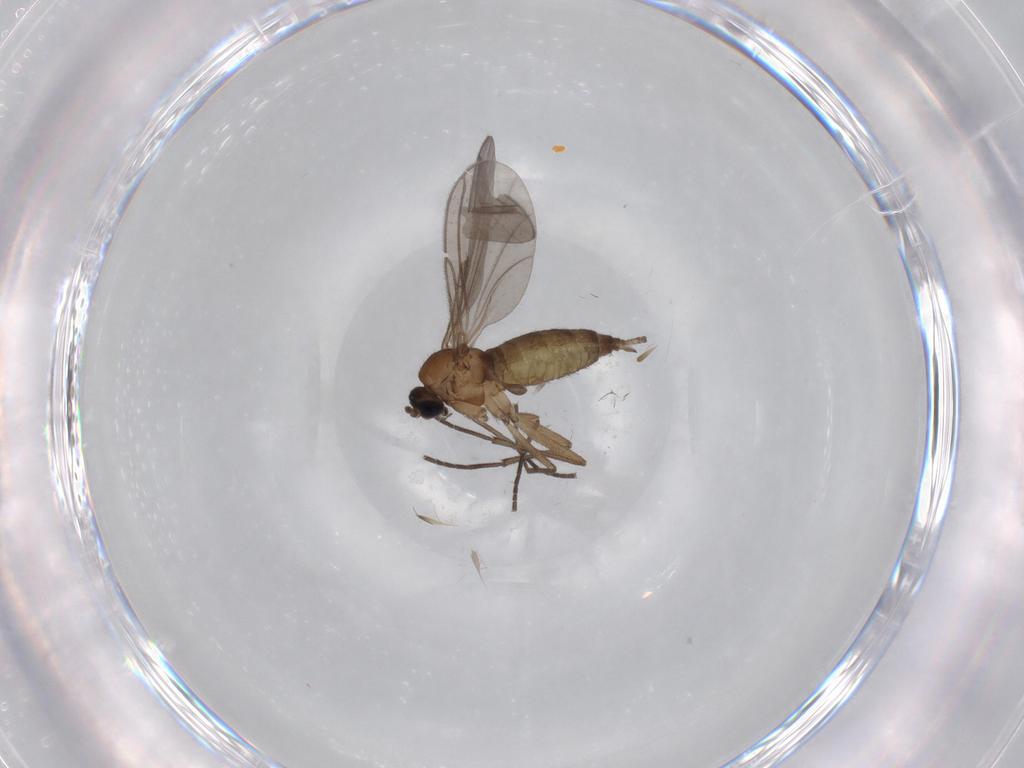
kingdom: Animalia
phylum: Arthropoda
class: Insecta
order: Diptera
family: Sciaridae
